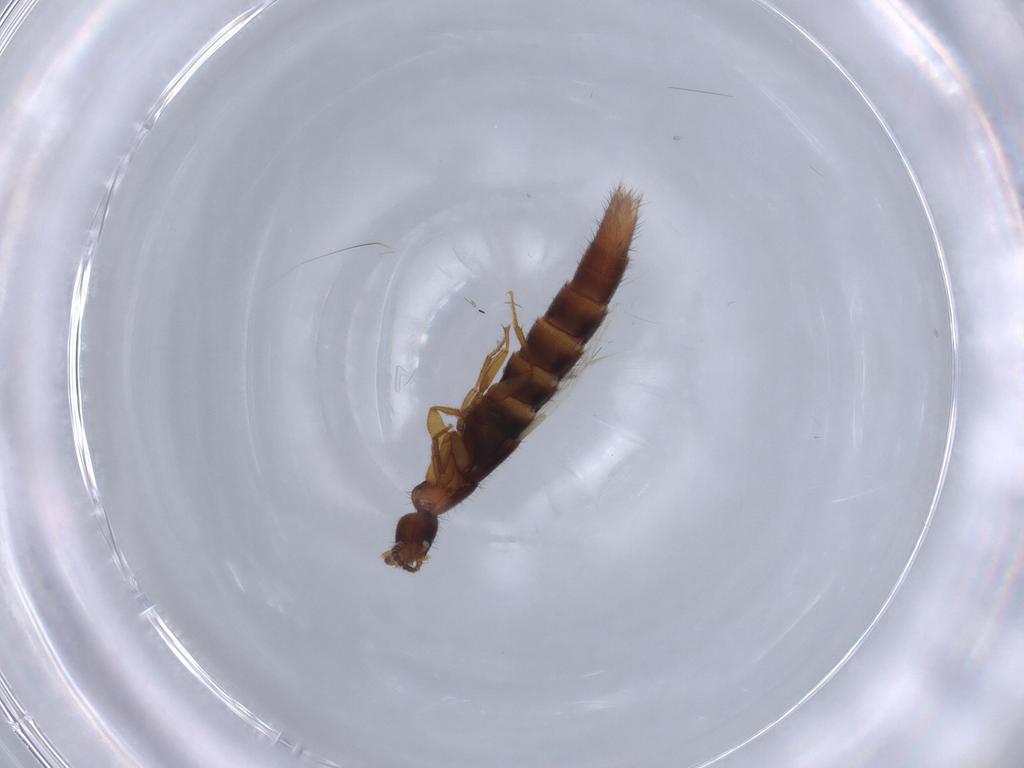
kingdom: Animalia
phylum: Arthropoda
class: Insecta
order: Coleoptera
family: Staphylinidae
